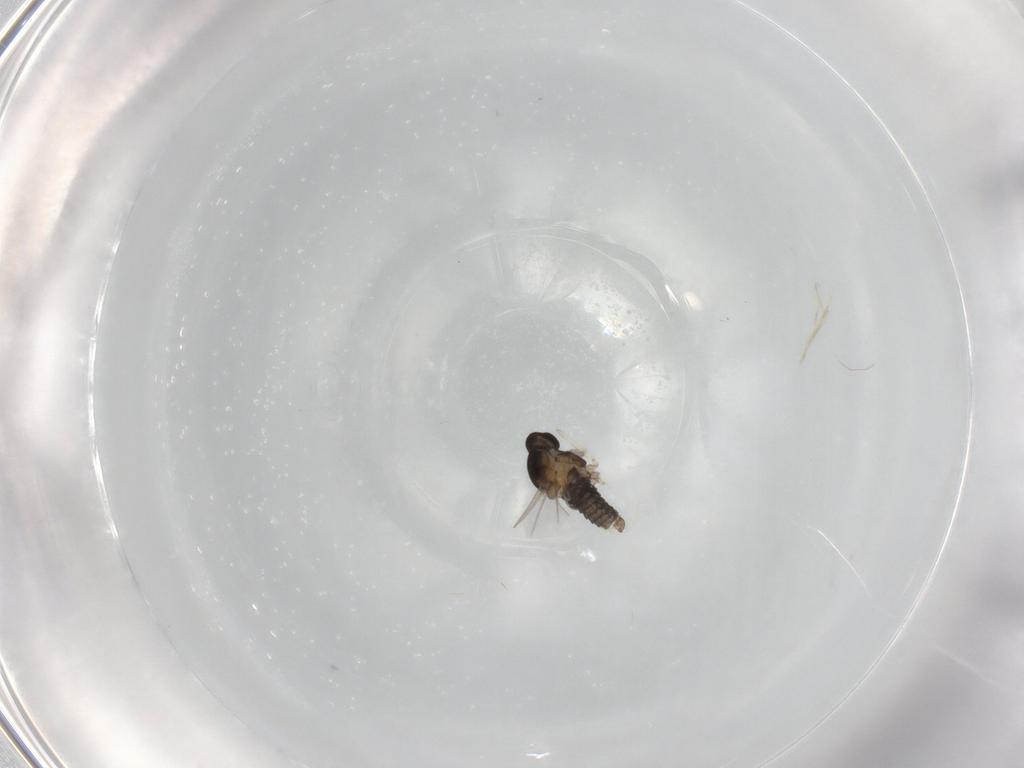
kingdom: Animalia
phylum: Arthropoda
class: Insecta
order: Diptera
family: Cecidomyiidae
